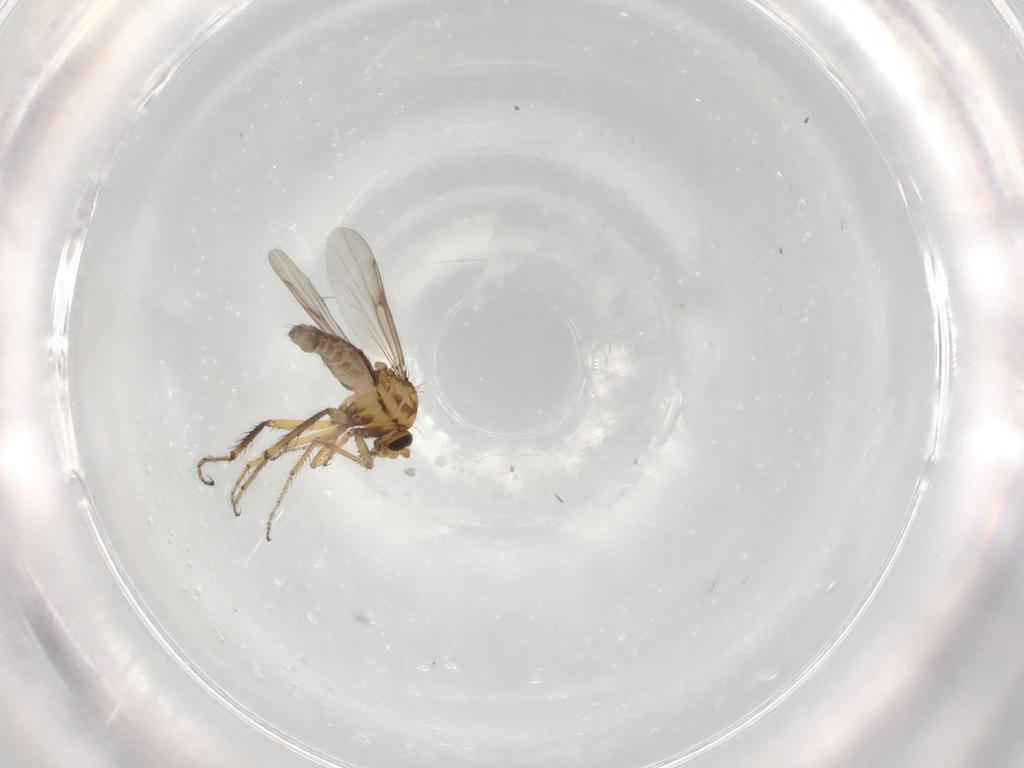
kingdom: Animalia
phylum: Arthropoda
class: Insecta
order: Diptera
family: Ceratopogonidae
